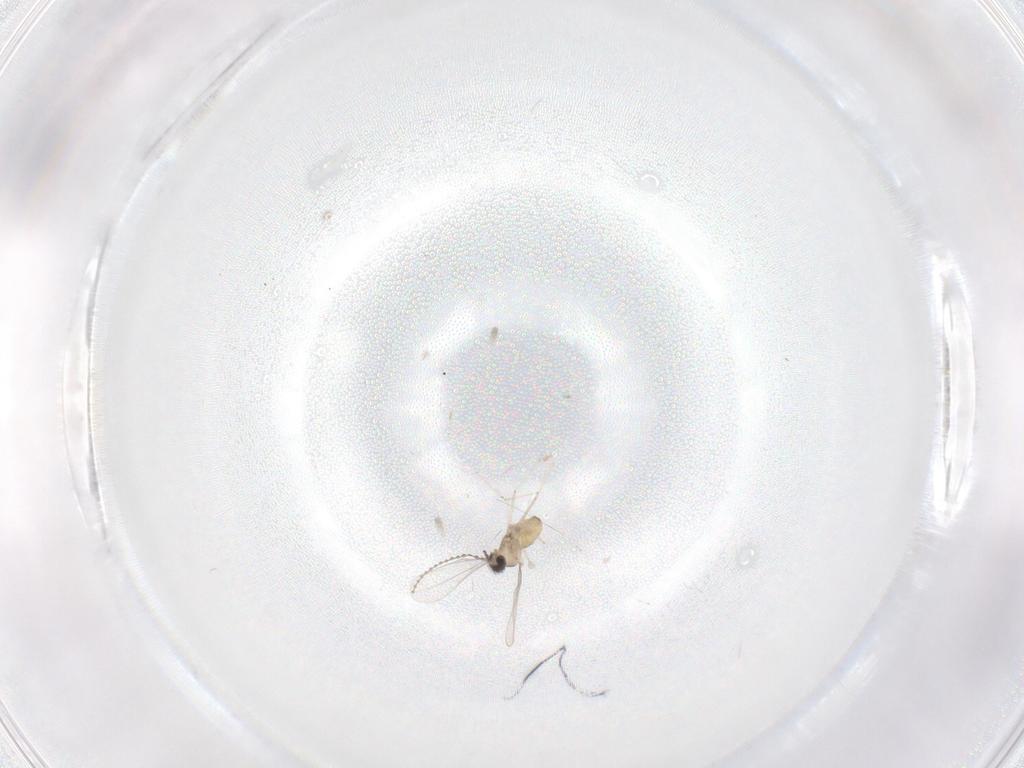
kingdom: Animalia
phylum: Arthropoda
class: Insecta
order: Diptera
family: Cecidomyiidae
